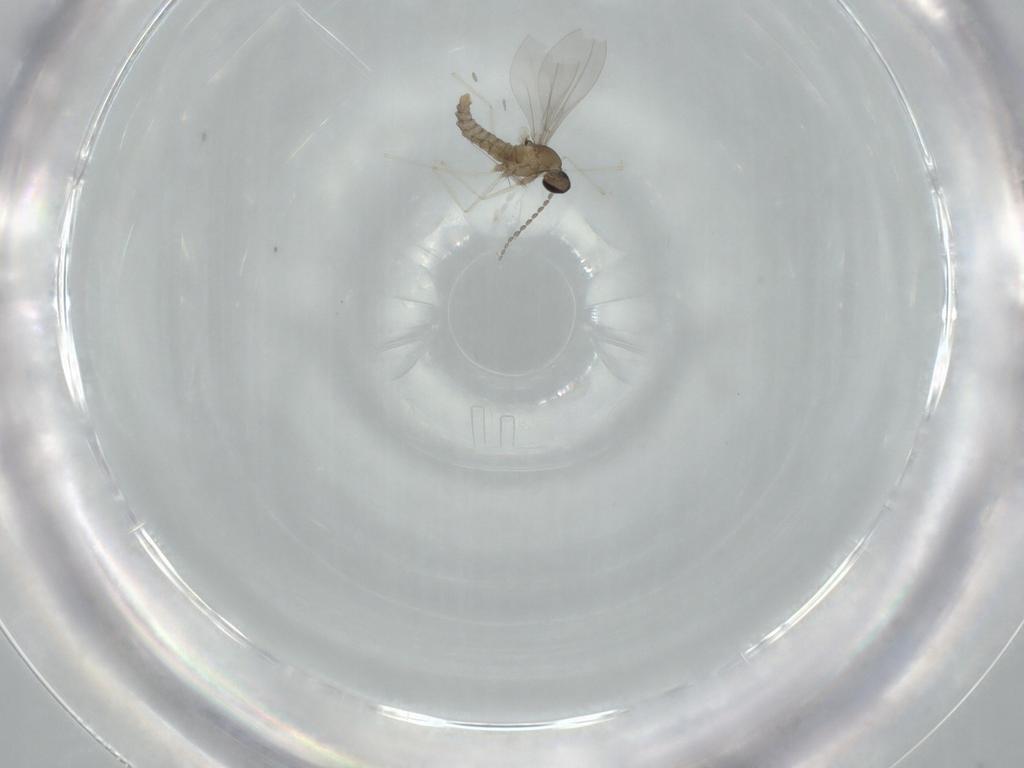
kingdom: Animalia
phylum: Arthropoda
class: Insecta
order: Diptera
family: Cecidomyiidae
